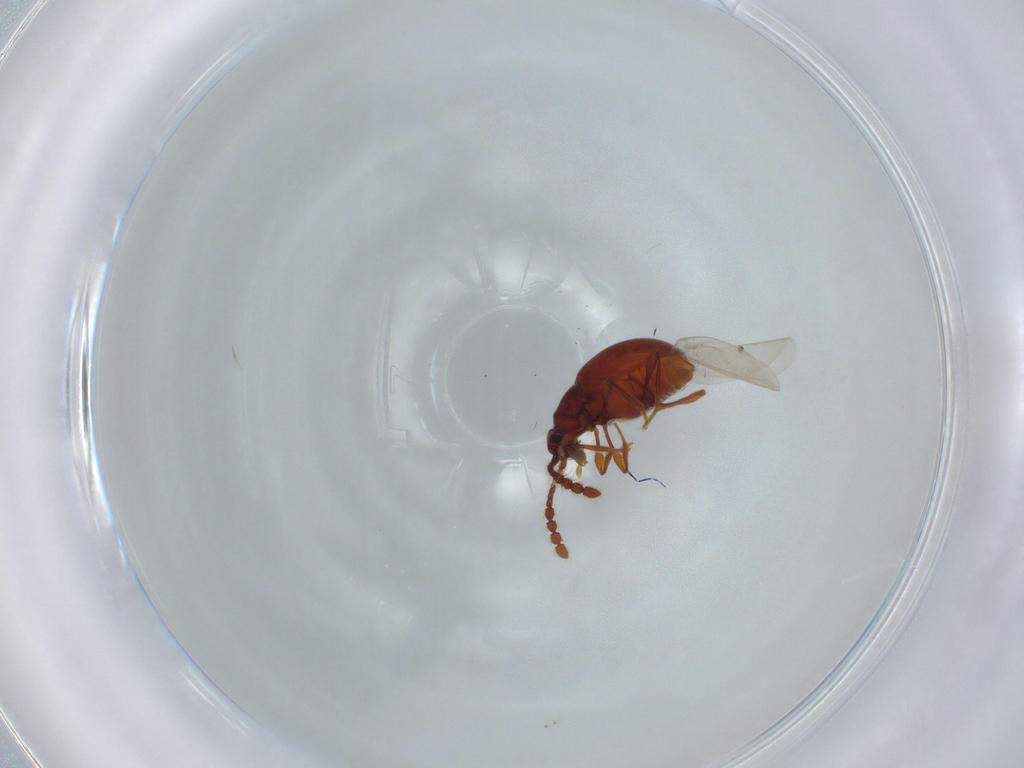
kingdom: Animalia
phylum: Arthropoda
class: Insecta
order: Coleoptera
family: Staphylinidae
